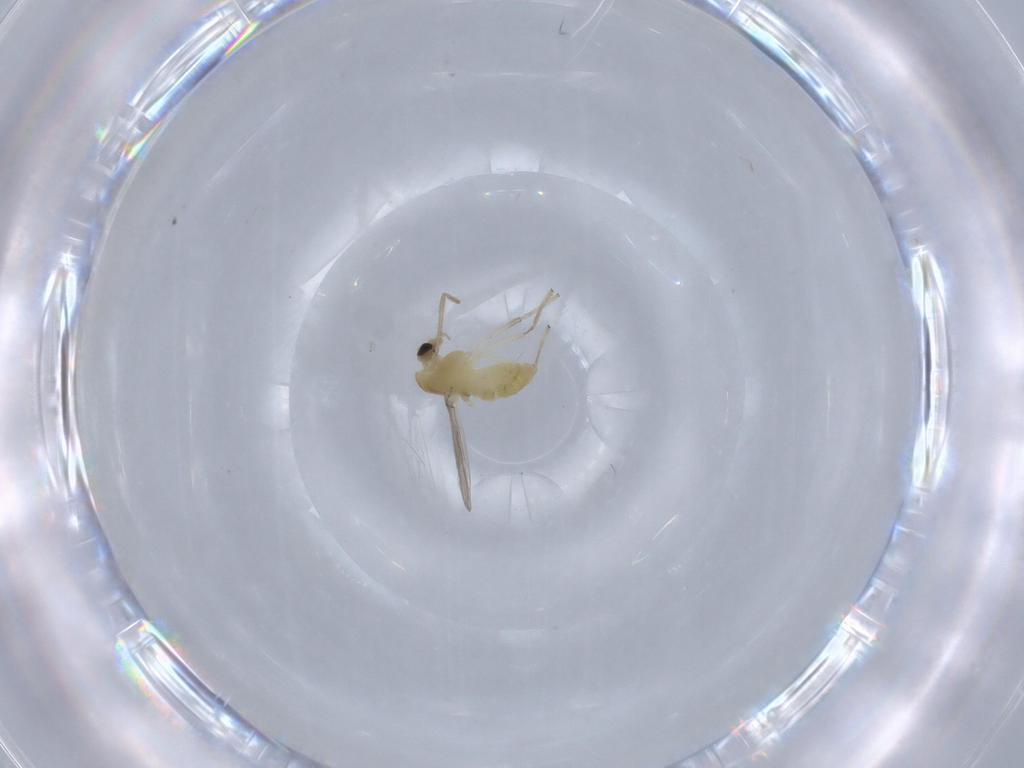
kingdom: Animalia
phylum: Arthropoda
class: Insecta
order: Diptera
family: Chironomidae
